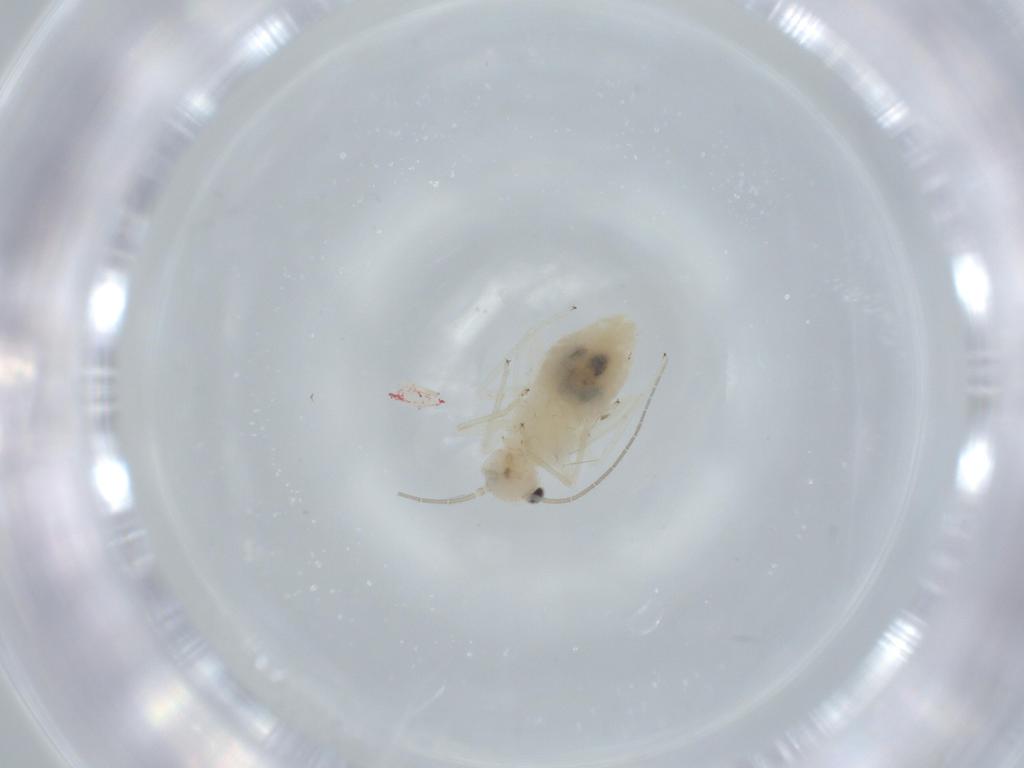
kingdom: Animalia
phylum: Arthropoda
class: Insecta
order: Psocodea
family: Caeciliusidae
